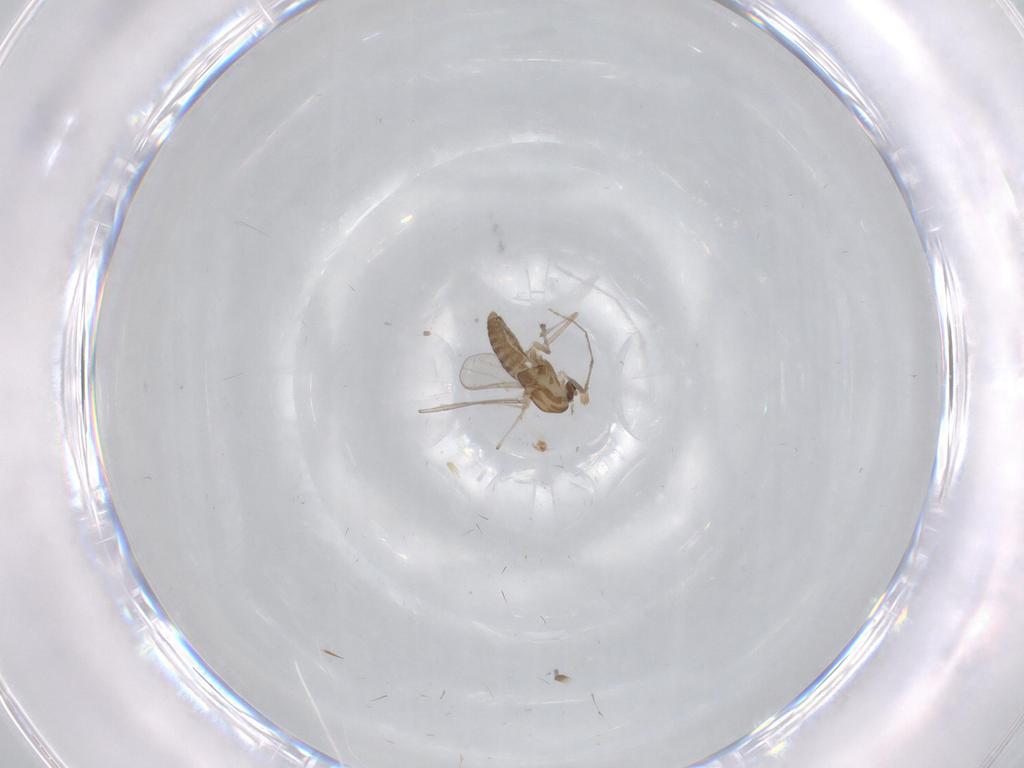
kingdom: Animalia
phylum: Arthropoda
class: Insecta
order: Diptera
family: Chironomidae
